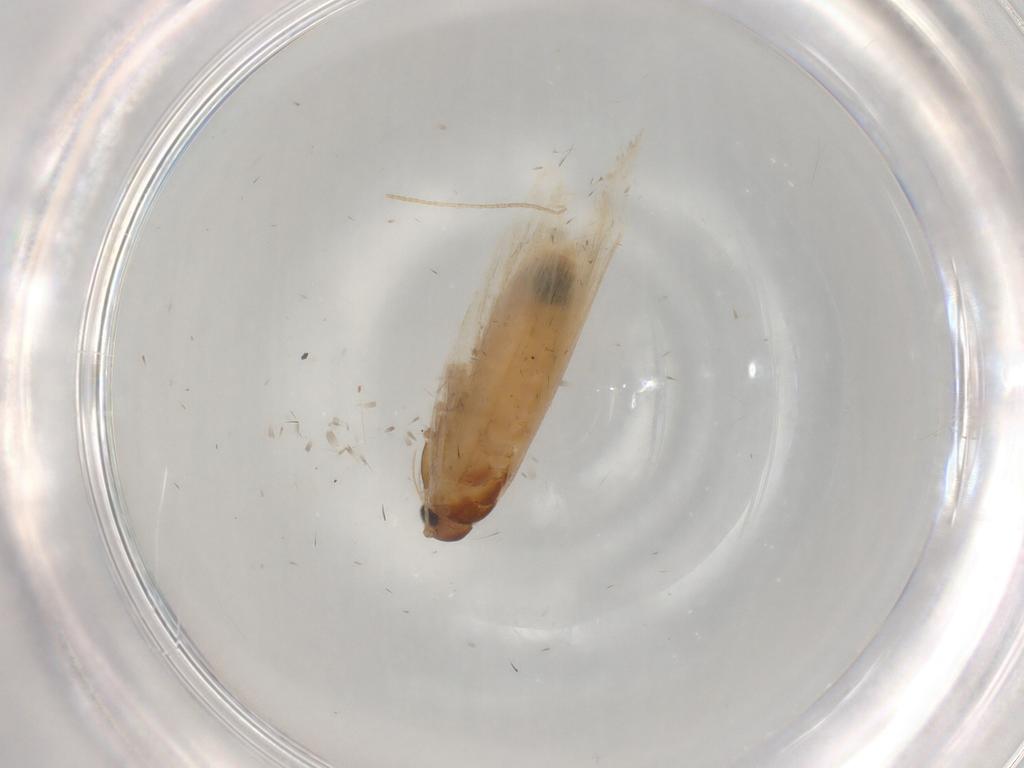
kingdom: Animalia
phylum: Arthropoda
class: Insecta
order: Lepidoptera
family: Gelechiidae
